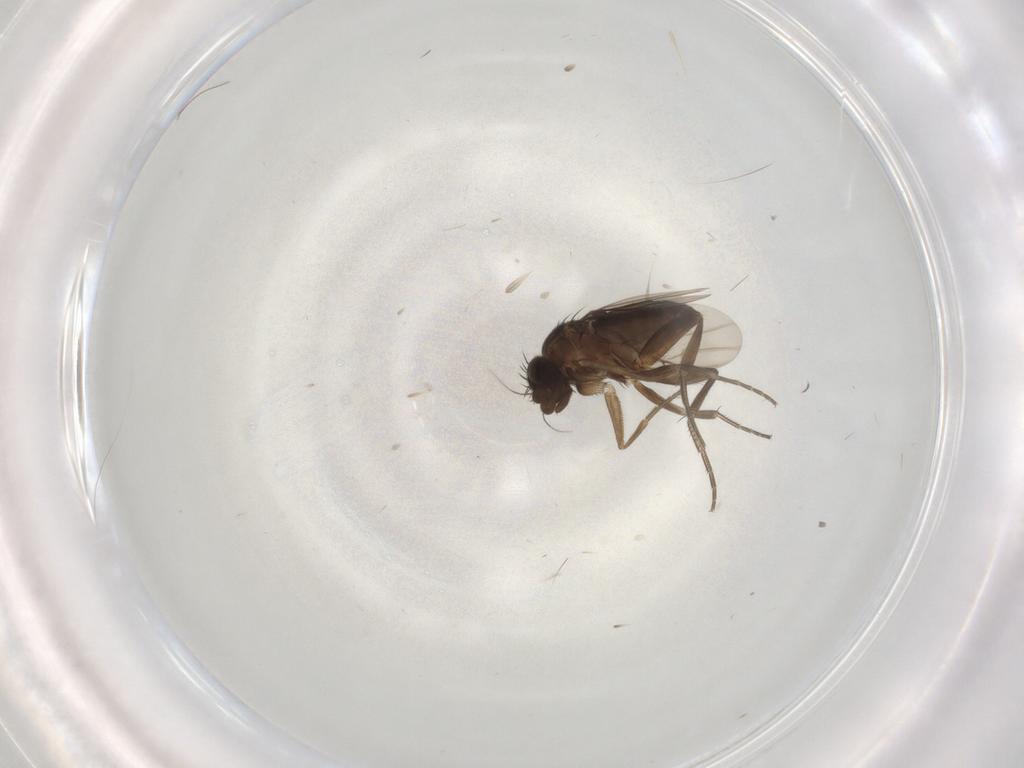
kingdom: Animalia
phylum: Arthropoda
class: Insecta
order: Diptera
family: Phoridae
